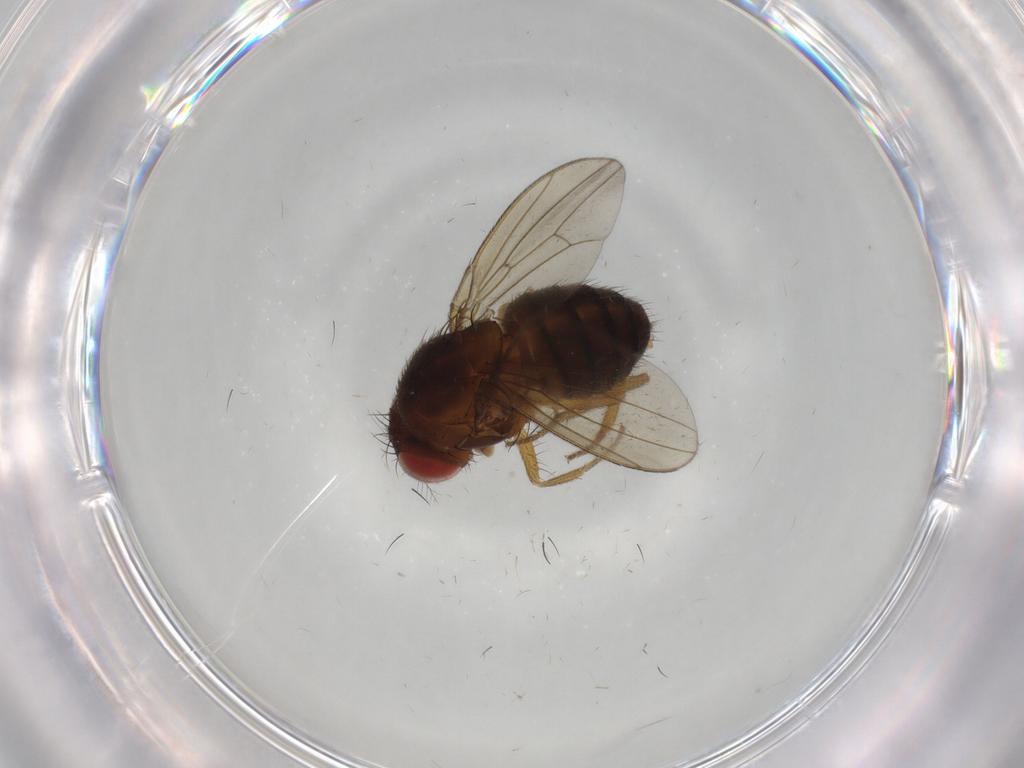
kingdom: Animalia
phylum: Arthropoda
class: Insecta
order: Diptera
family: Drosophilidae
